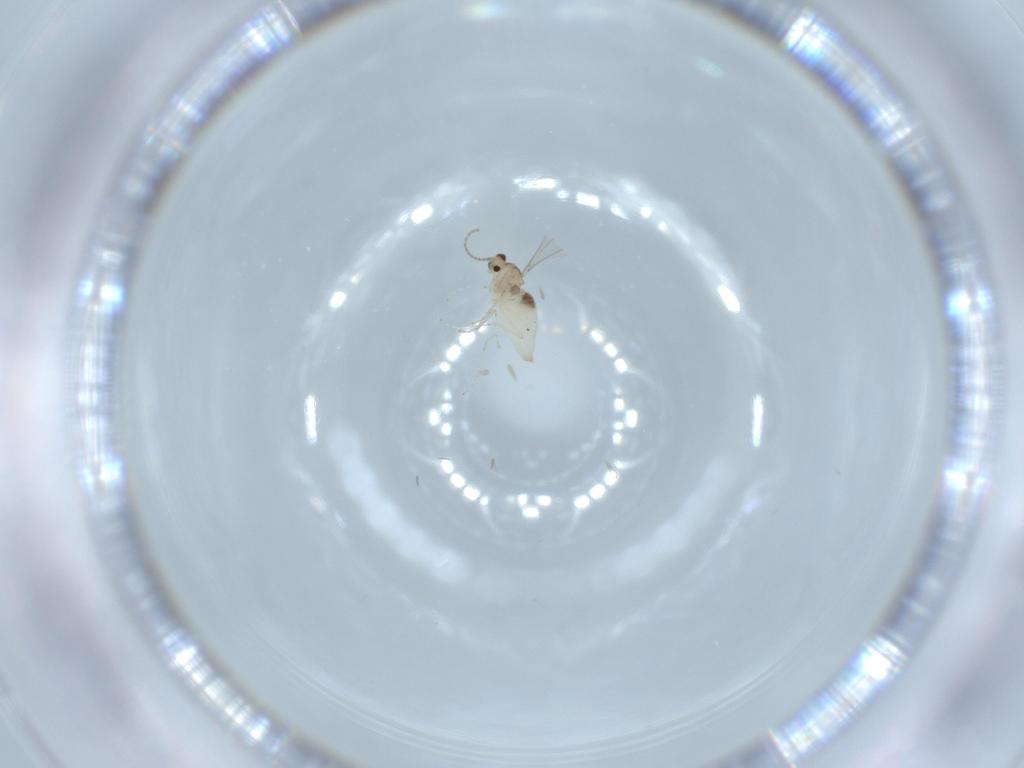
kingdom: Animalia
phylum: Arthropoda
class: Insecta
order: Diptera
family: Cecidomyiidae
